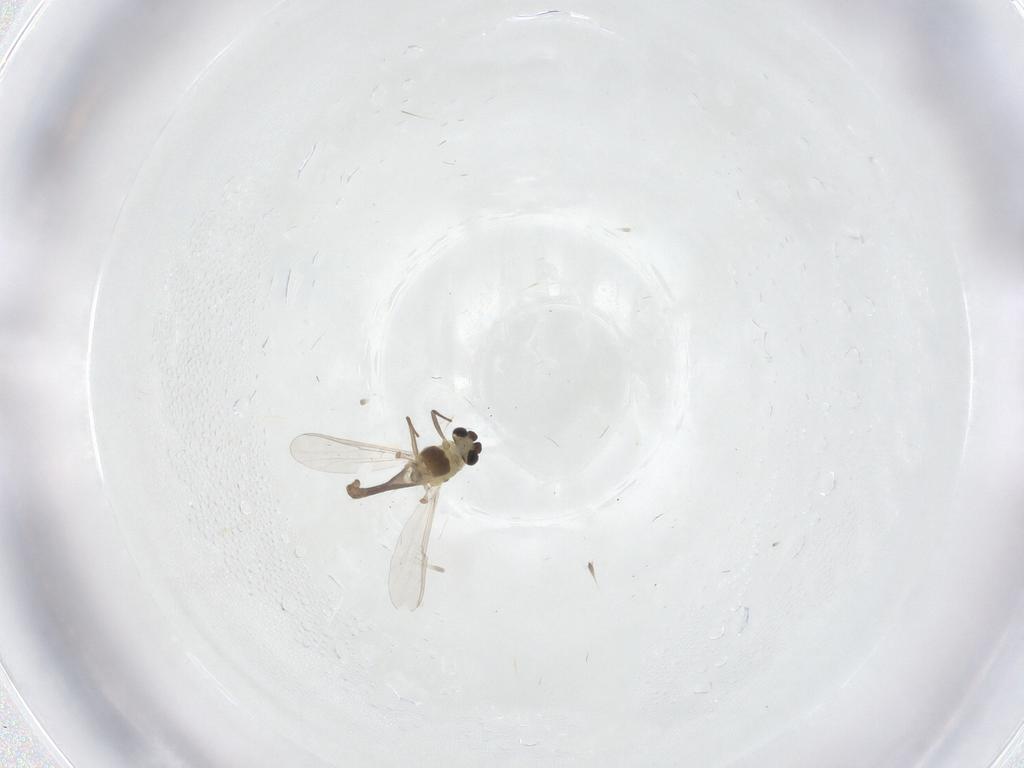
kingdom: Animalia
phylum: Arthropoda
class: Insecta
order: Diptera
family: Chironomidae
